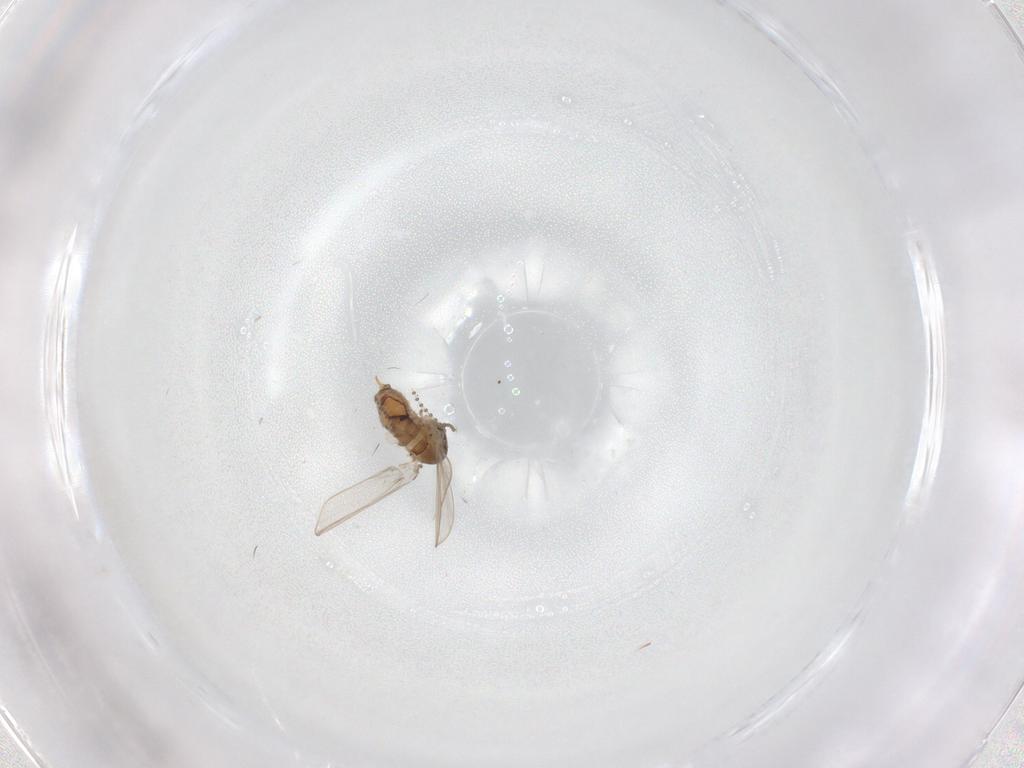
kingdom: Animalia
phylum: Arthropoda
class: Insecta
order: Diptera
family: Psychodidae
